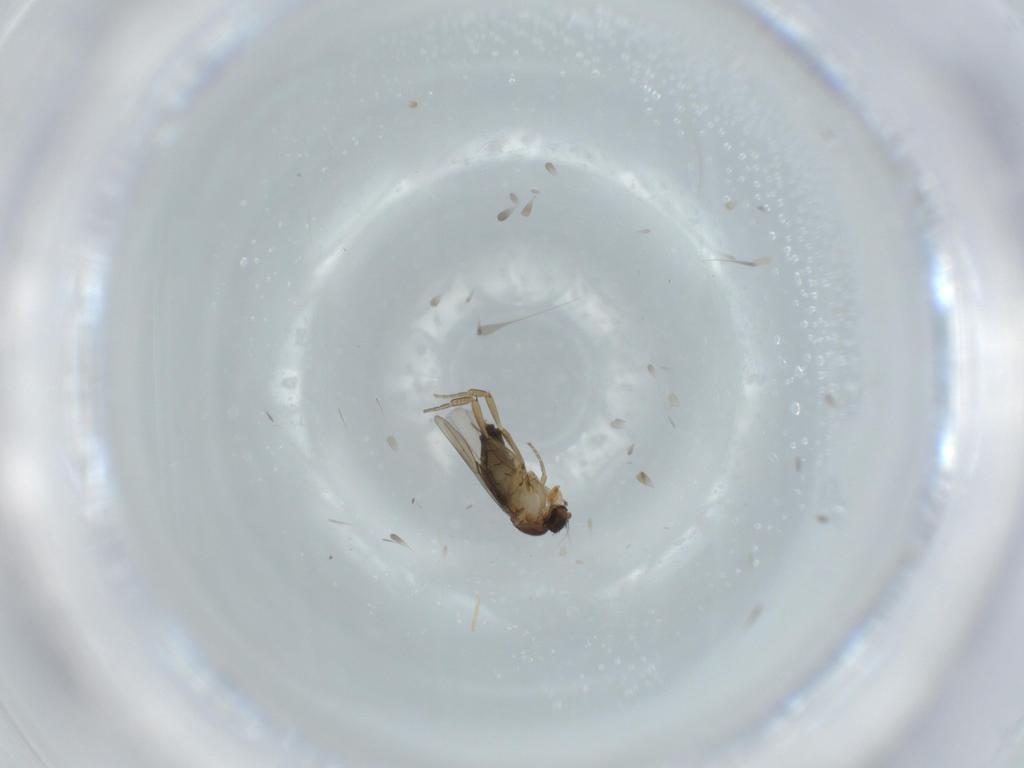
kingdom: Animalia
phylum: Arthropoda
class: Insecta
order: Diptera
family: Phoridae
